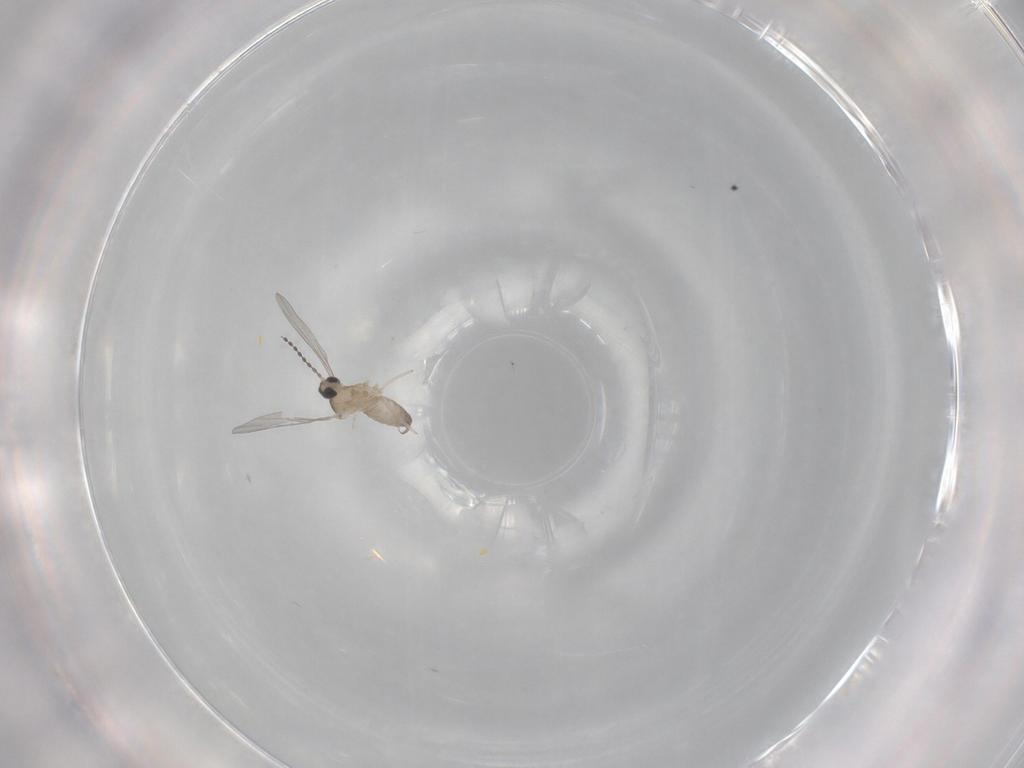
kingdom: Animalia
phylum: Arthropoda
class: Insecta
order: Diptera
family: Cecidomyiidae
